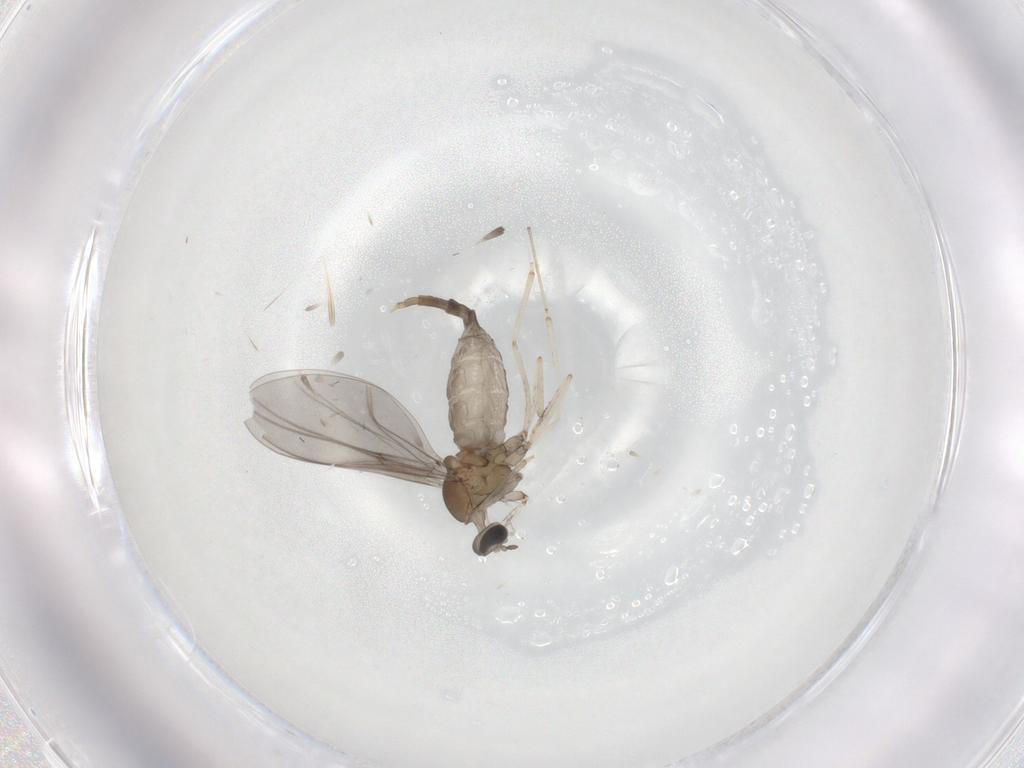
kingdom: Animalia
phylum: Arthropoda
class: Insecta
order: Diptera
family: Cecidomyiidae
